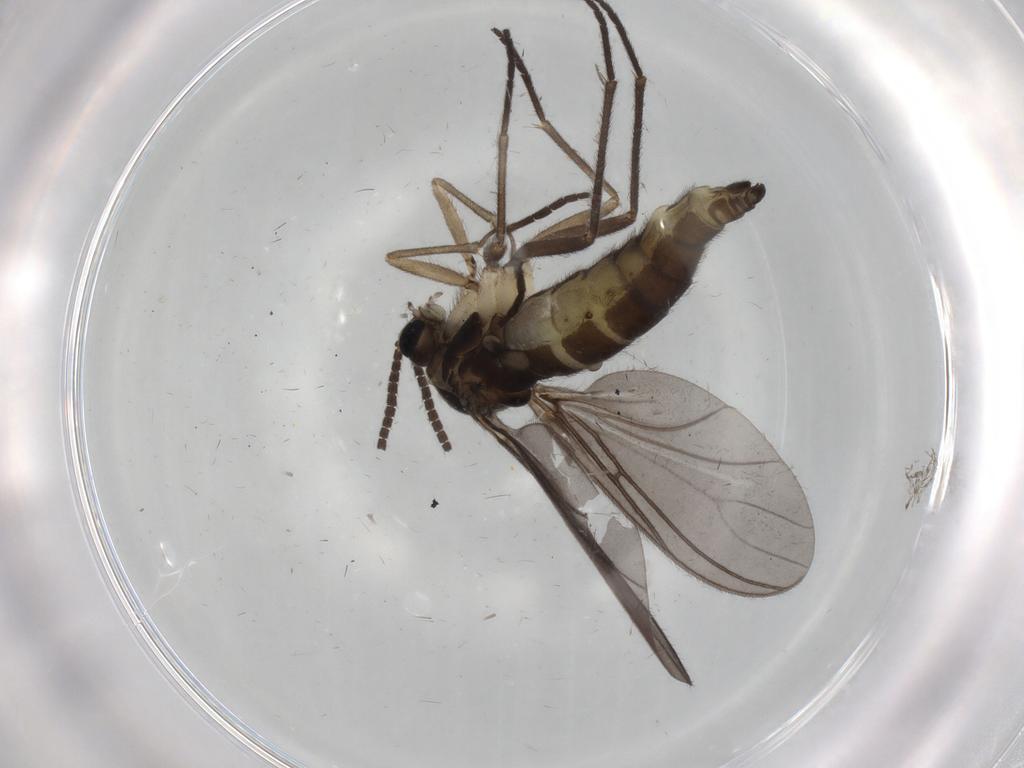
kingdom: Animalia
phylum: Arthropoda
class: Insecta
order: Diptera
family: Sciaridae
